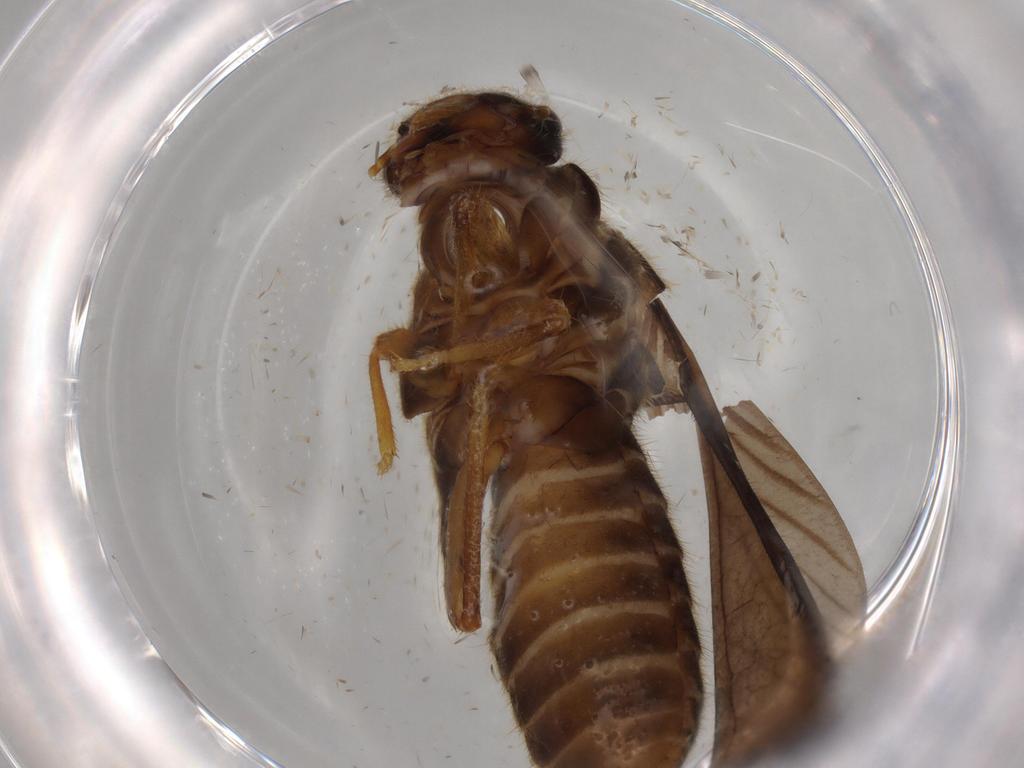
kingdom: Animalia
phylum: Arthropoda
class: Insecta
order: Blattodea
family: Termitidae
